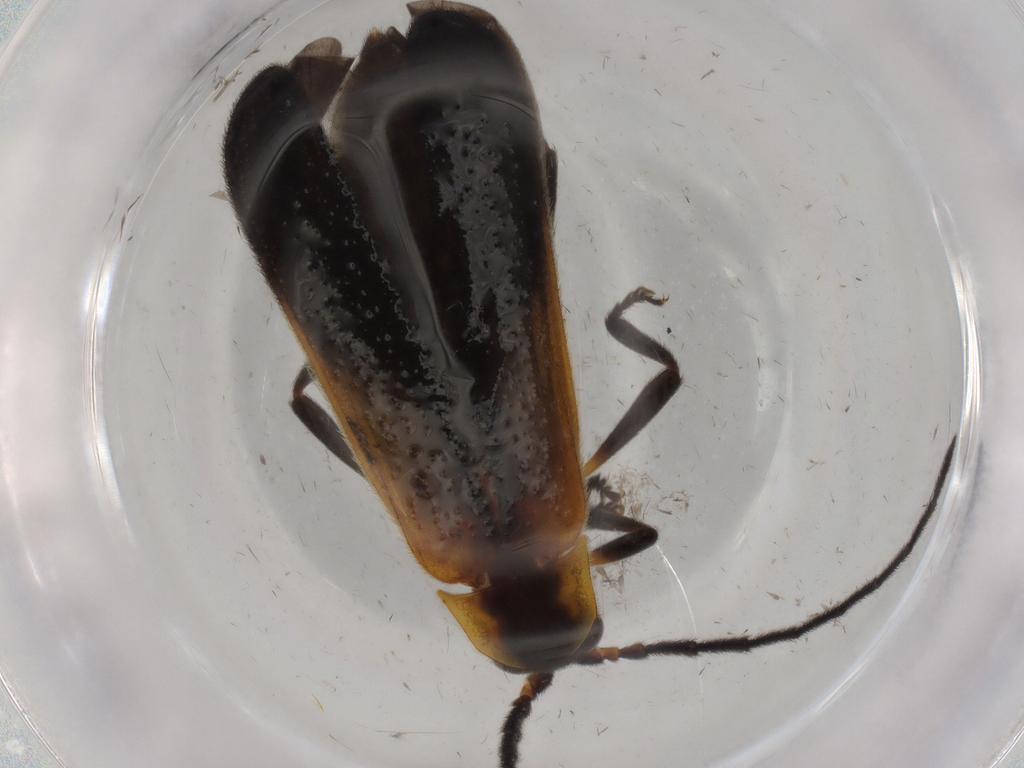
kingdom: Animalia
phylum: Arthropoda
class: Insecta
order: Coleoptera
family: Lycidae
